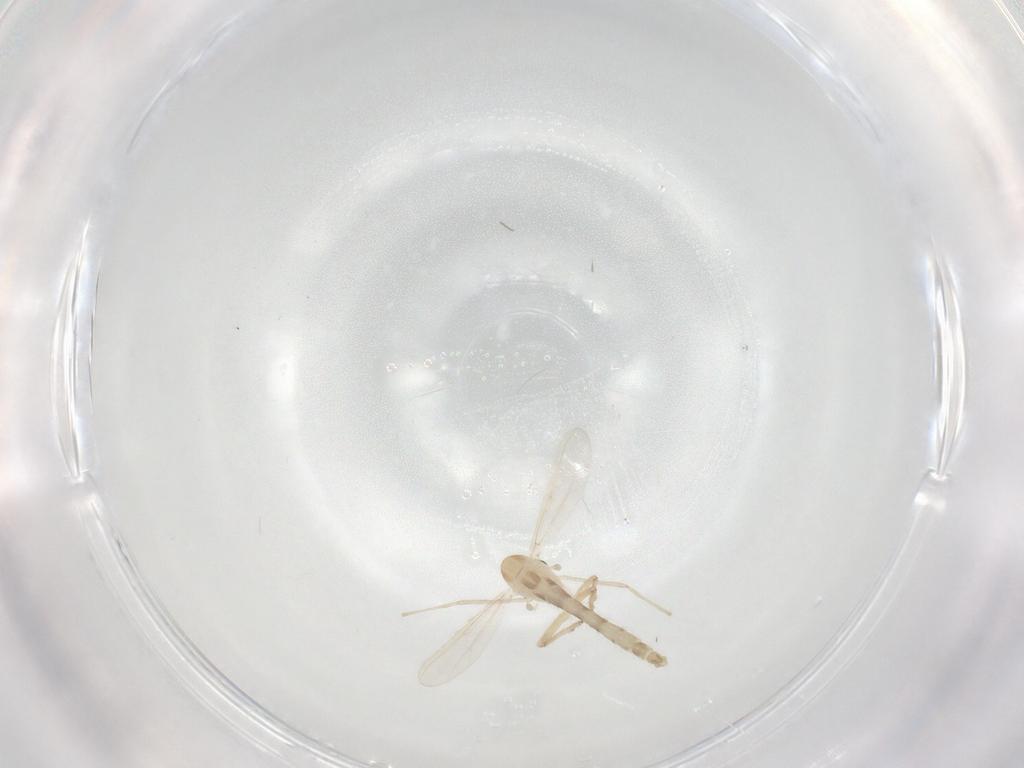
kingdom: Animalia
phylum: Arthropoda
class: Insecta
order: Diptera
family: Chironomidae
